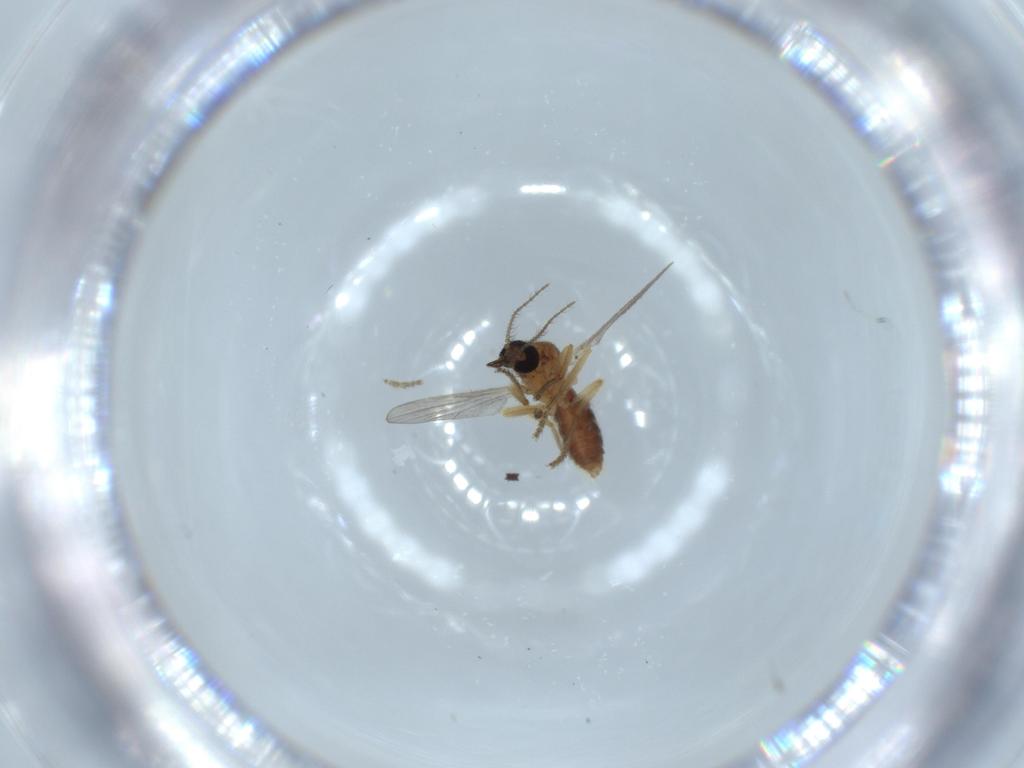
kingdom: Animalia
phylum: Arthropoda
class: Insecta
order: Diptera
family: Ceratopogonidae
